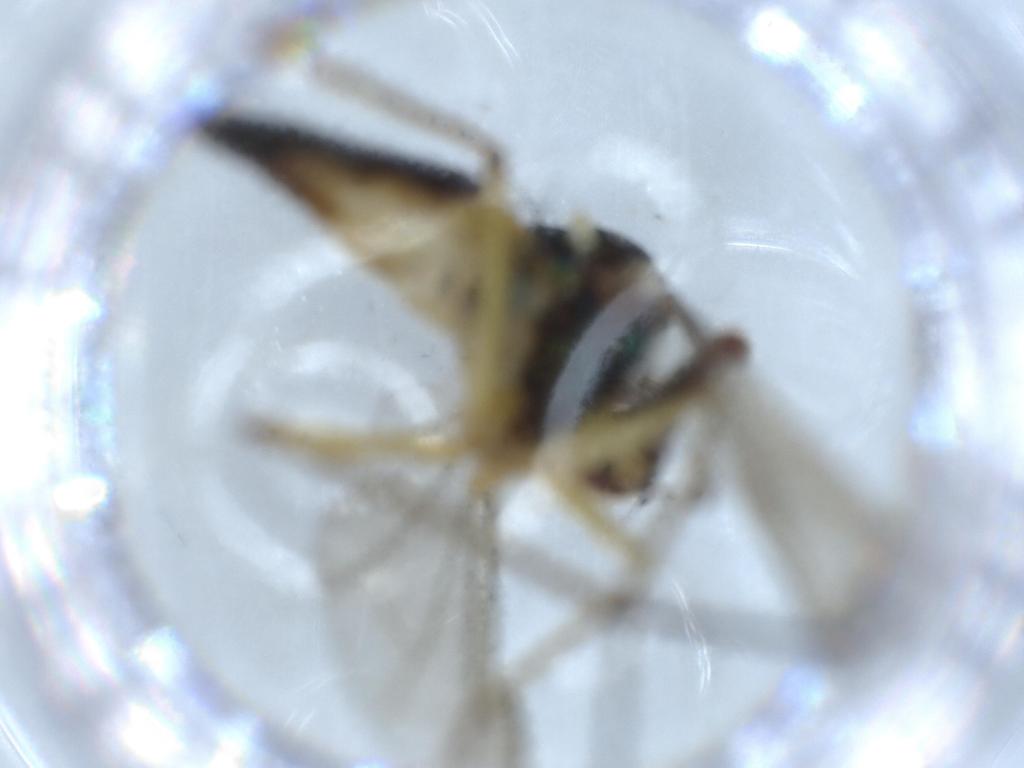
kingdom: Animalia
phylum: Arthropoda
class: Insecta
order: Diptera
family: Dolichopodidae
